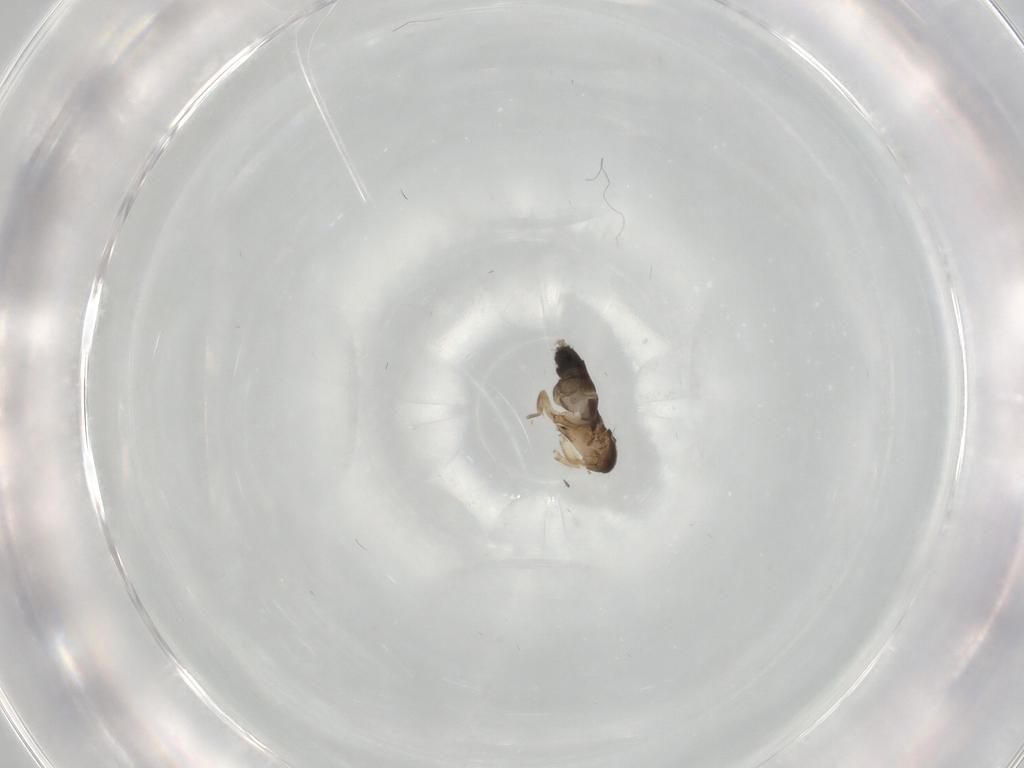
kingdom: Animalia
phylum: Arthropoda
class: Insecta
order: Diptera
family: Phoridae
